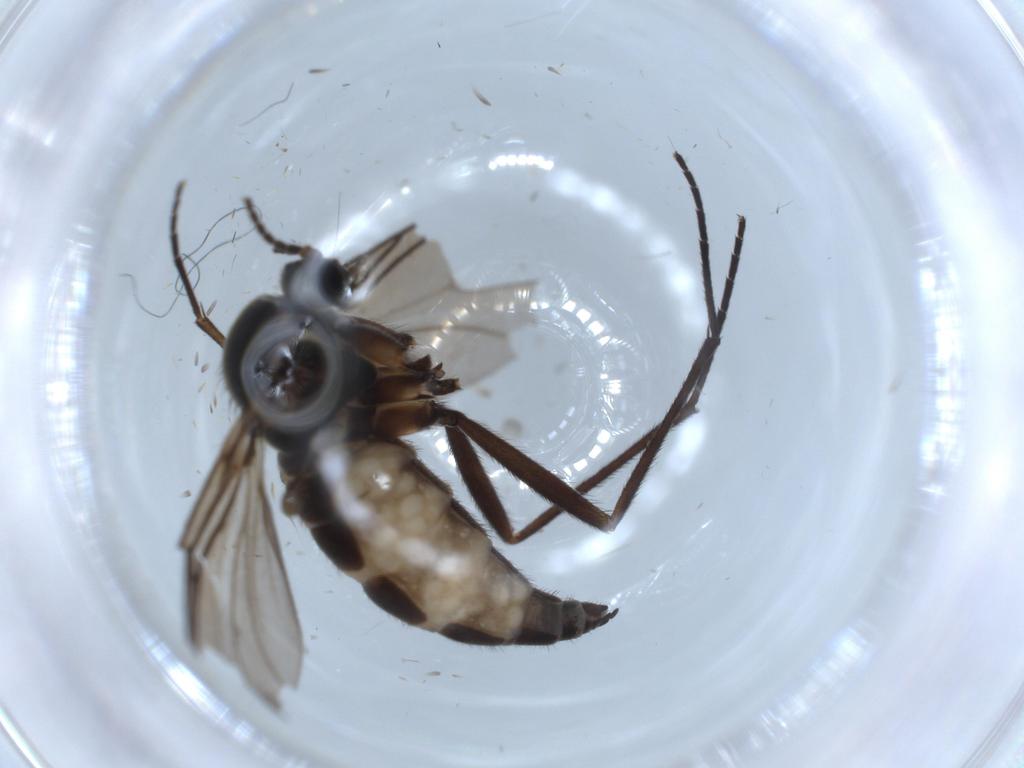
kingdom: Animalia
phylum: Arthropoda
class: Insecta
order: Diptera
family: Sciaridae
